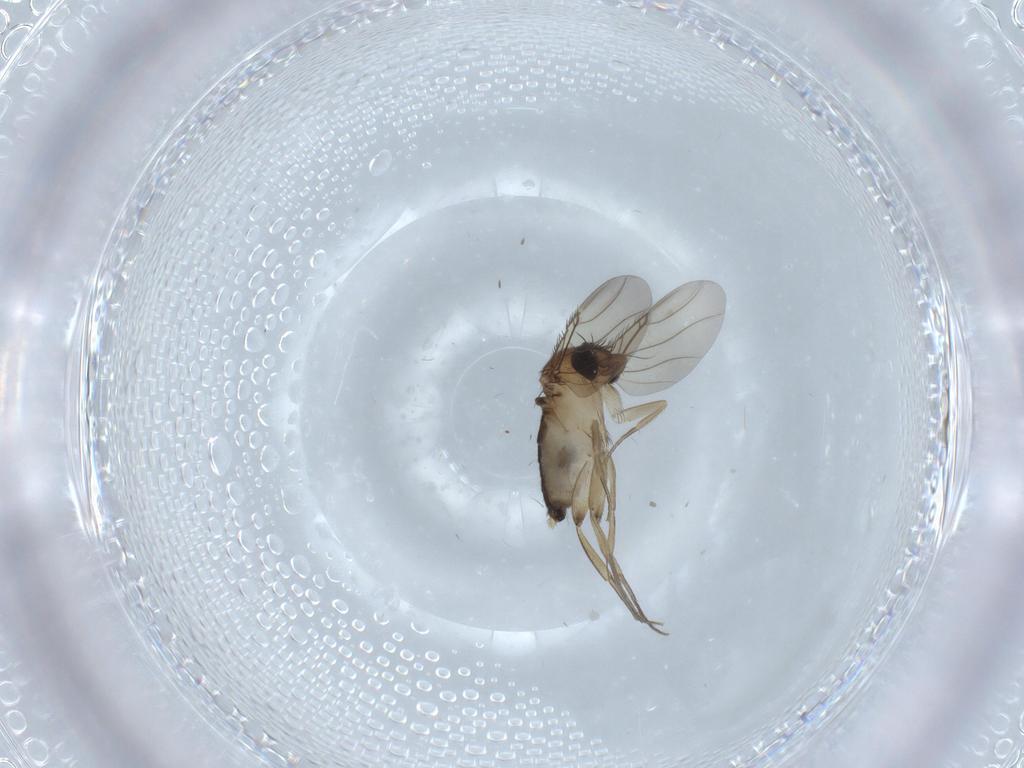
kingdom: Animalia
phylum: Arthropoda
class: Insecta
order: Diptera
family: Phoridae
